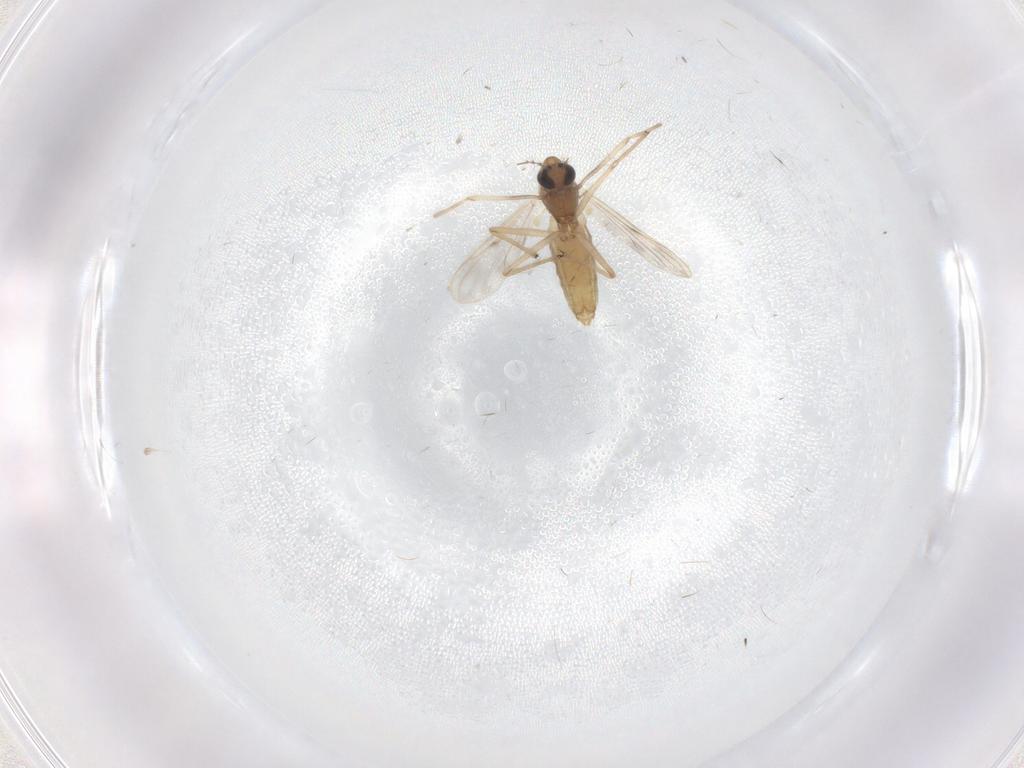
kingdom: Animalia
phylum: Arthropoda
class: Insecta
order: Diptera
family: Chironomidae
